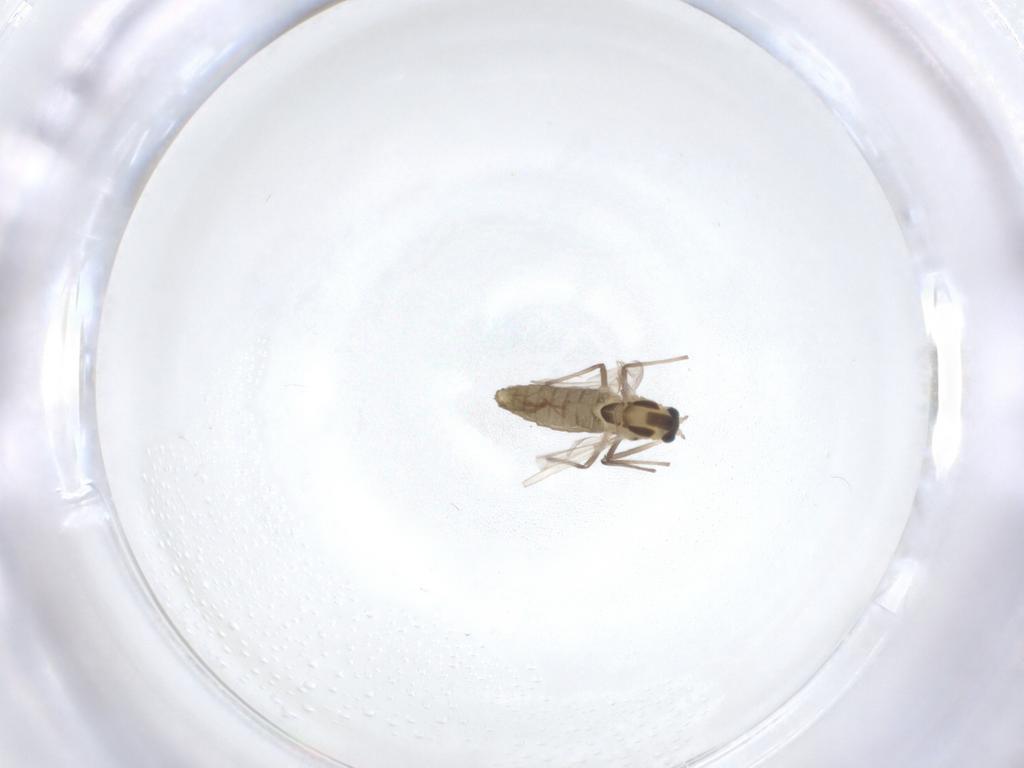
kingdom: Animalia
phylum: Arthropoda
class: Insecta
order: Diptera
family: Chironomidae
